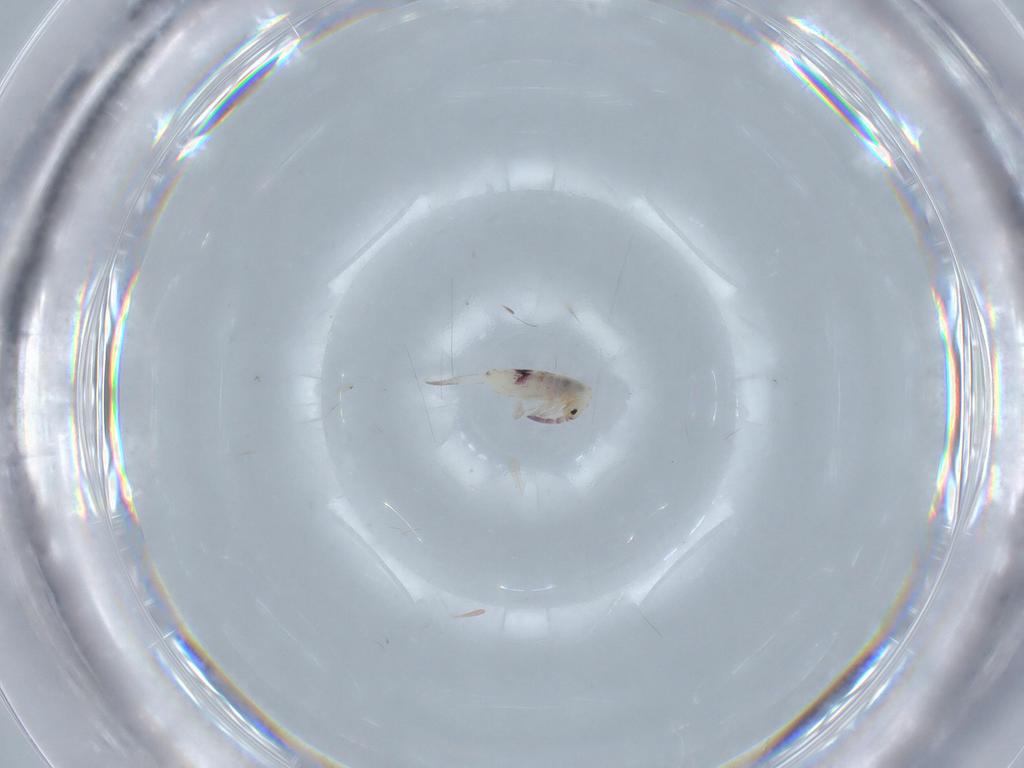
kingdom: Animalia
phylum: Arthropoda
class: Collembola
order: Entomobryomorpha
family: Entomobryidae
